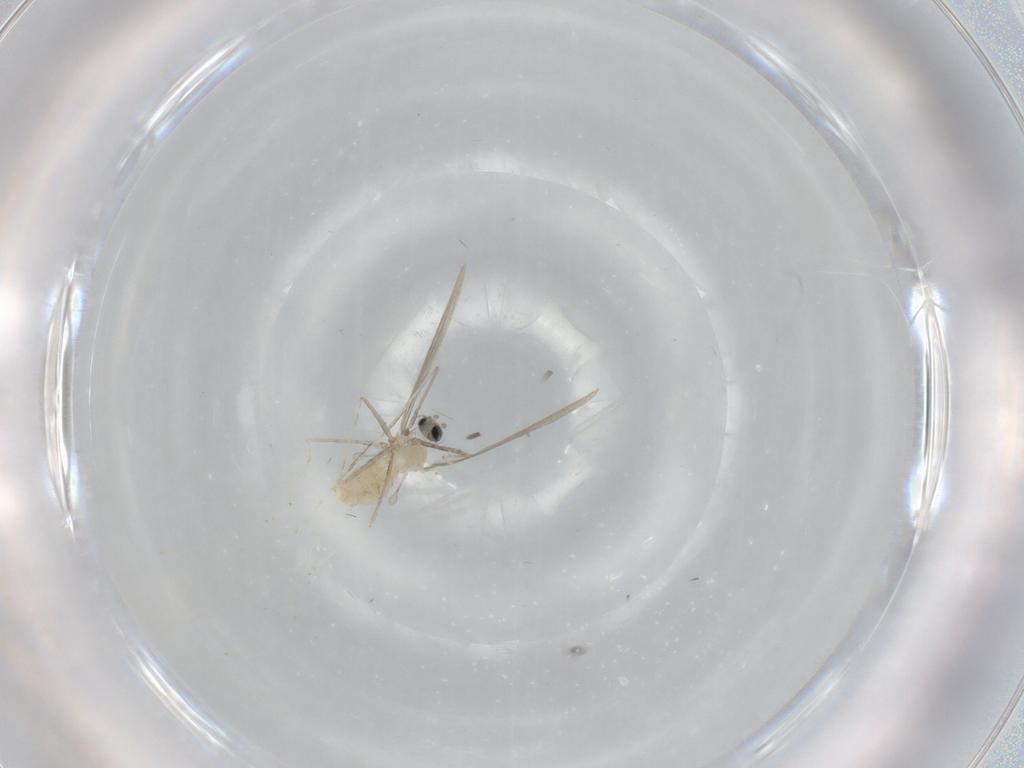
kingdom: Animalia
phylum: Arthropoda
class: Insecta
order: Diptera
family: Cecidomyiidae
